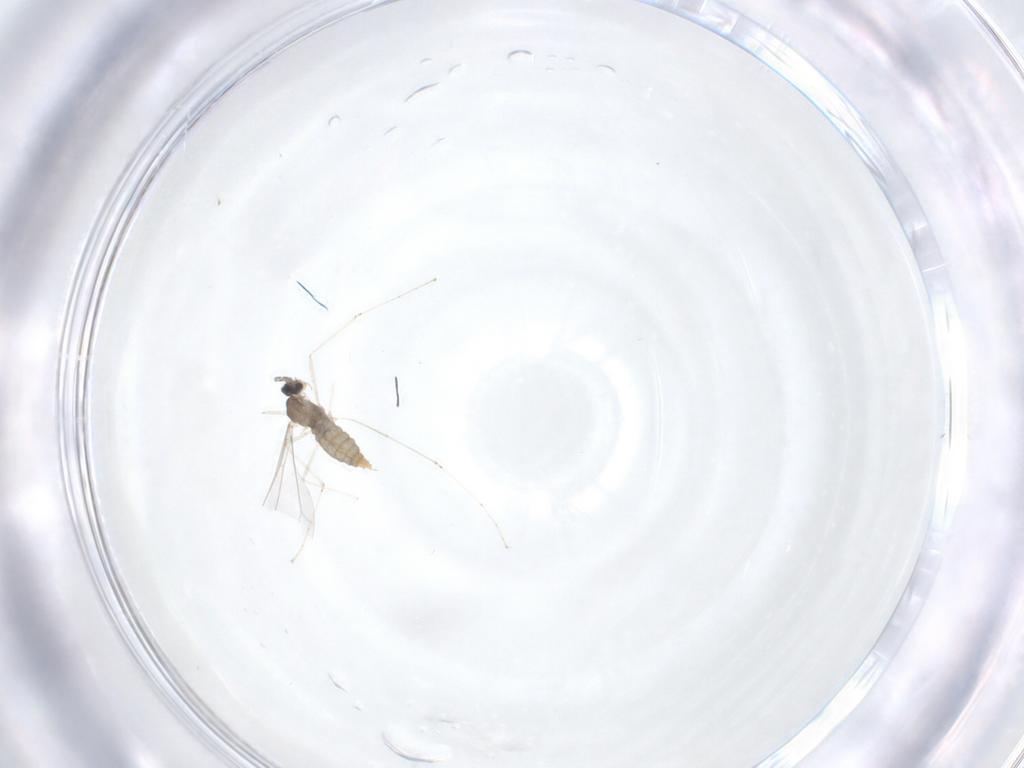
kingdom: Animalia
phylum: Arthropoda
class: Insecta
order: Diptera
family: Cecidomyiidae
